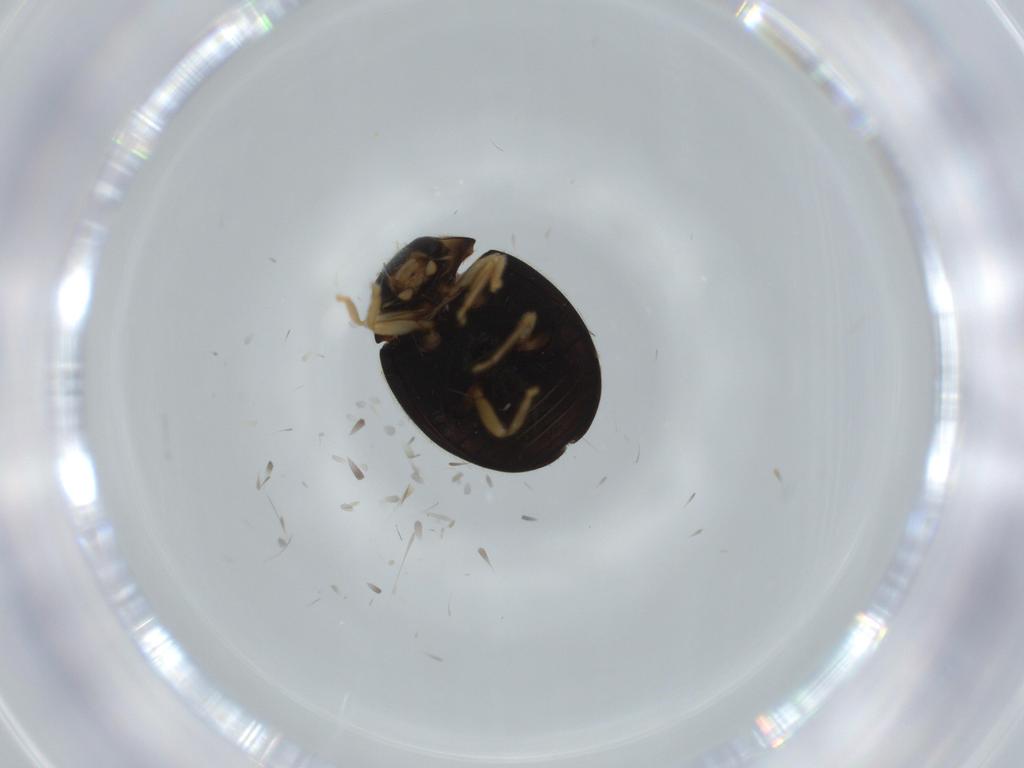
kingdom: Animalia
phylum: Arthropoda
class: Insecta
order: Coleoptera
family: Coccinellidae
